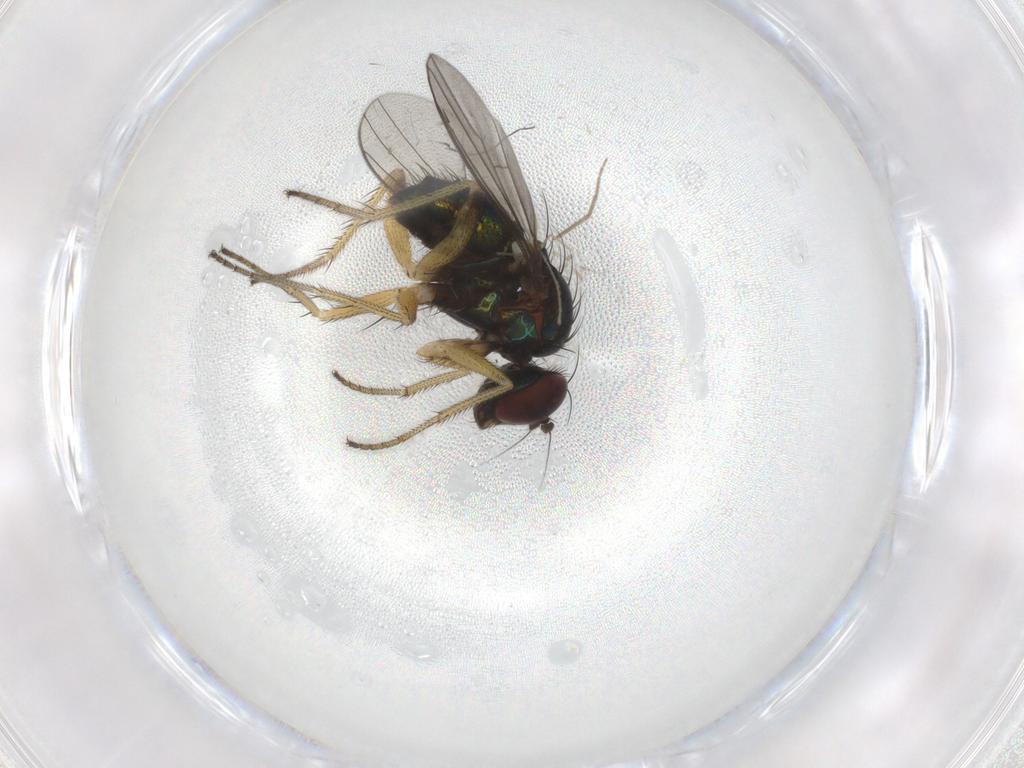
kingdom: Animalia
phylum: Arthropoda
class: Insecta
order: Diptera
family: Dolichopodidae
